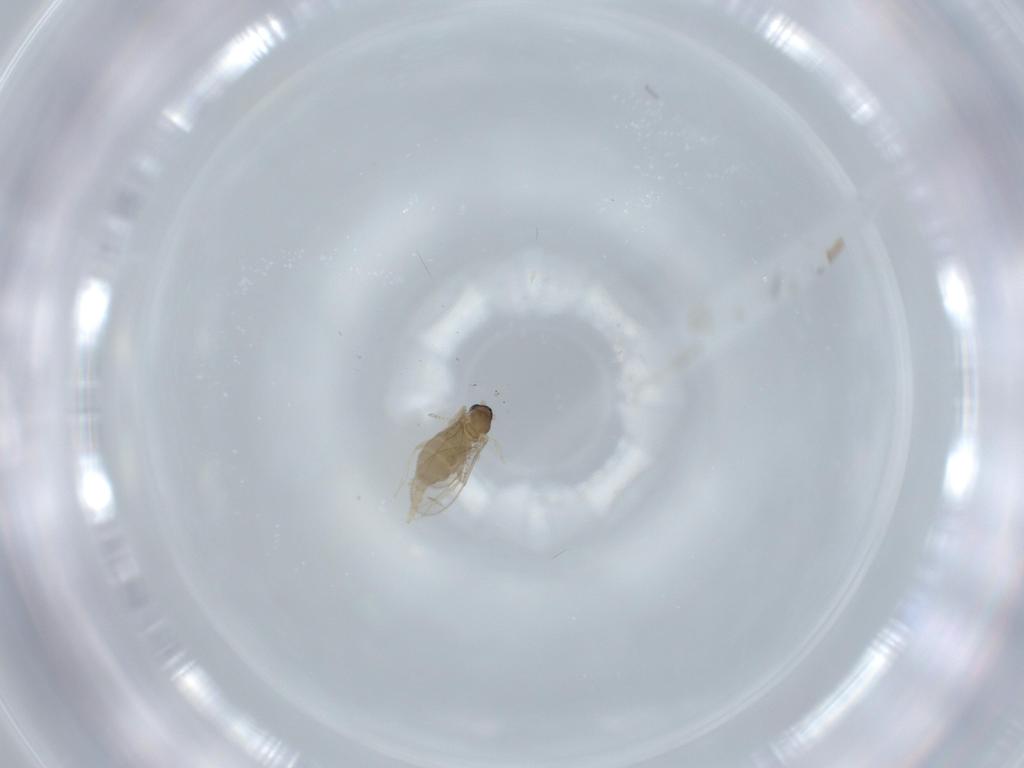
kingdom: Animalia
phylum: Arthropoda
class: Insecta
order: Diptera
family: Cecidomyiidae
